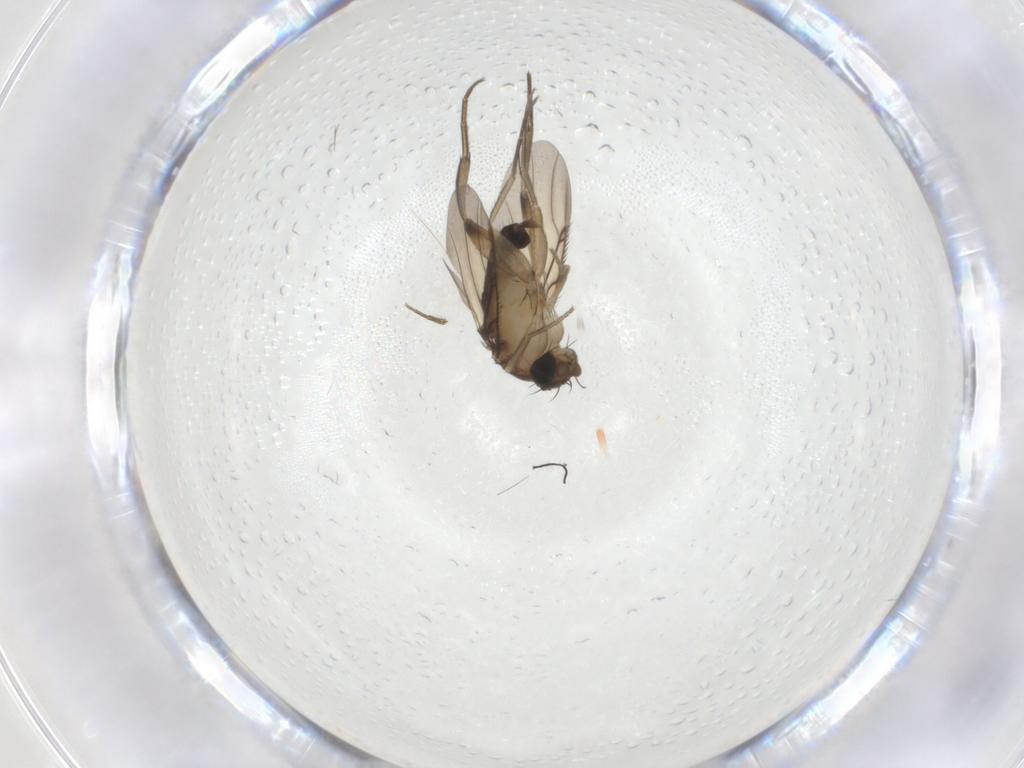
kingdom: Animalia
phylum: Arthropoda
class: Insecta
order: Diptera
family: Phoridae
